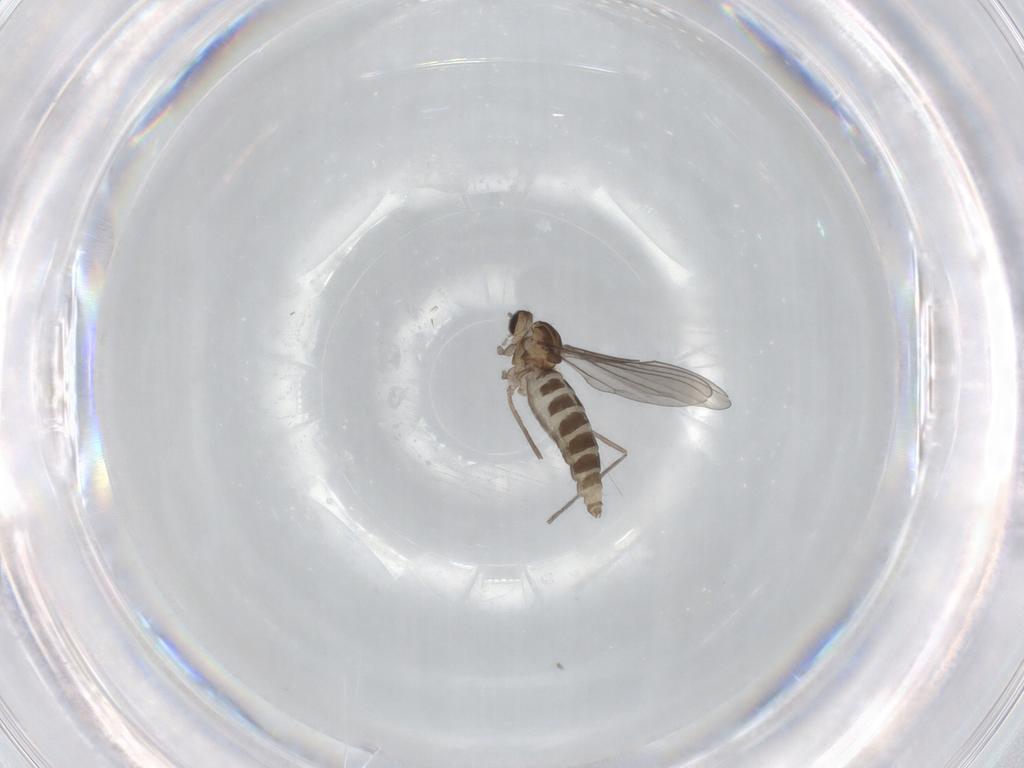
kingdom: Animalia
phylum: Arthropoda
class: Insecta
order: Diptera
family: Cecidomyiidae
